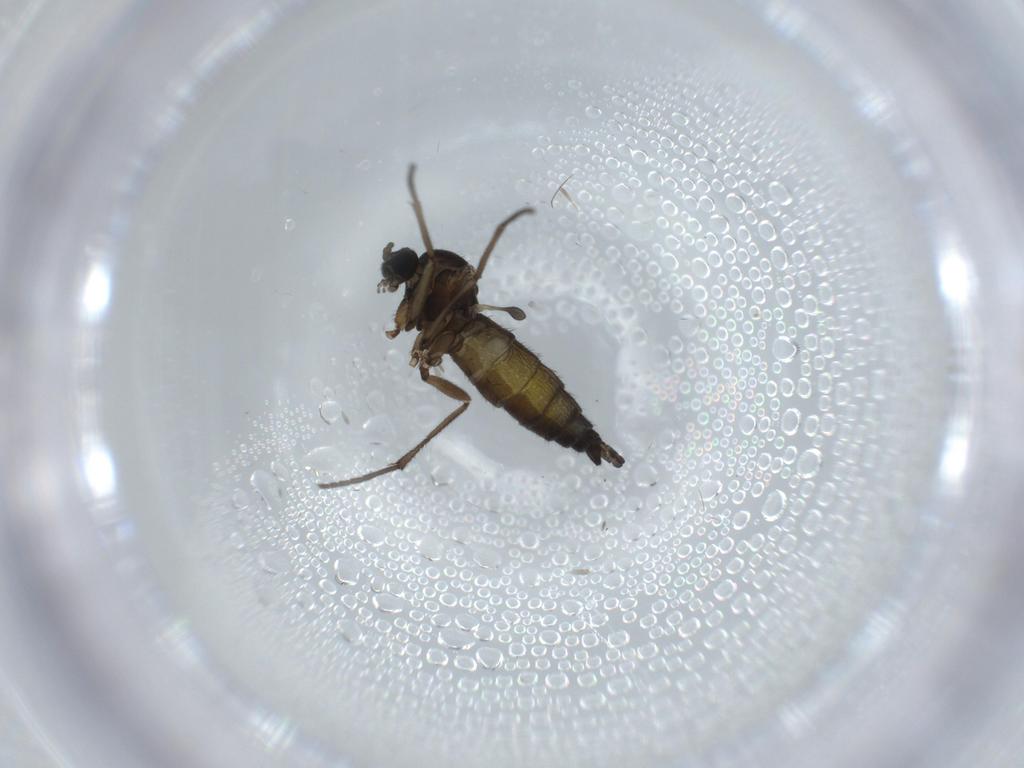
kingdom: Animalia
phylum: Arthropoda
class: Insecta
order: Diptera
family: Sciaridae
